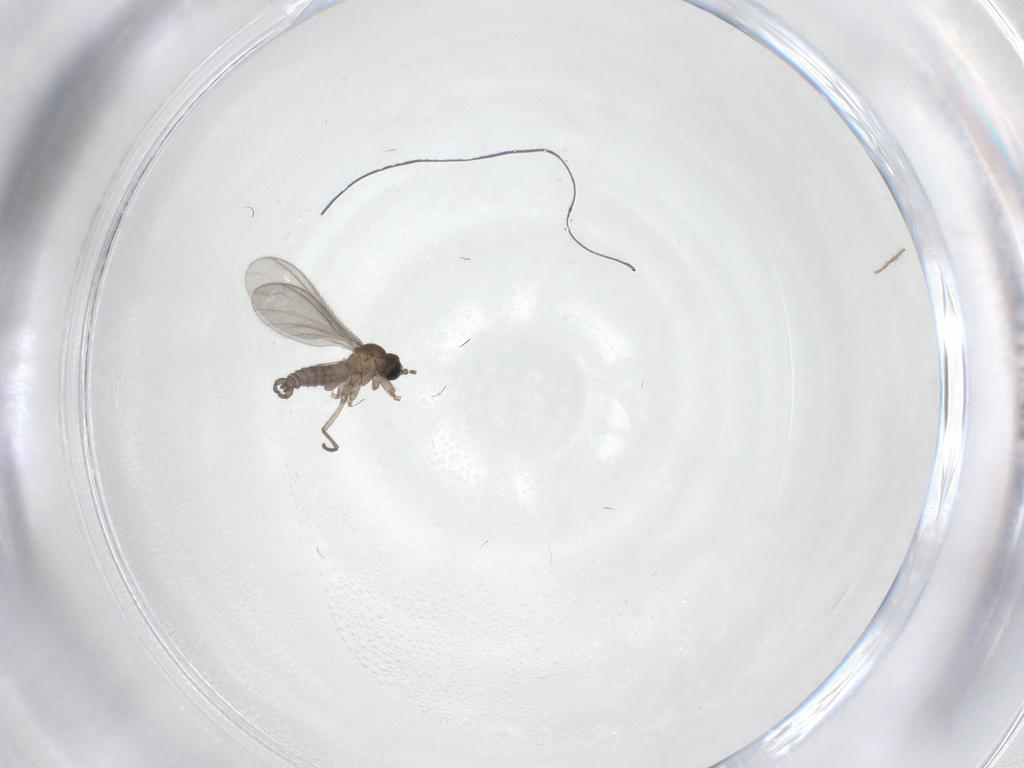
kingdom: Animalia
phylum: Arthropoda
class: Insecta
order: Diptera
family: Sciaridae
